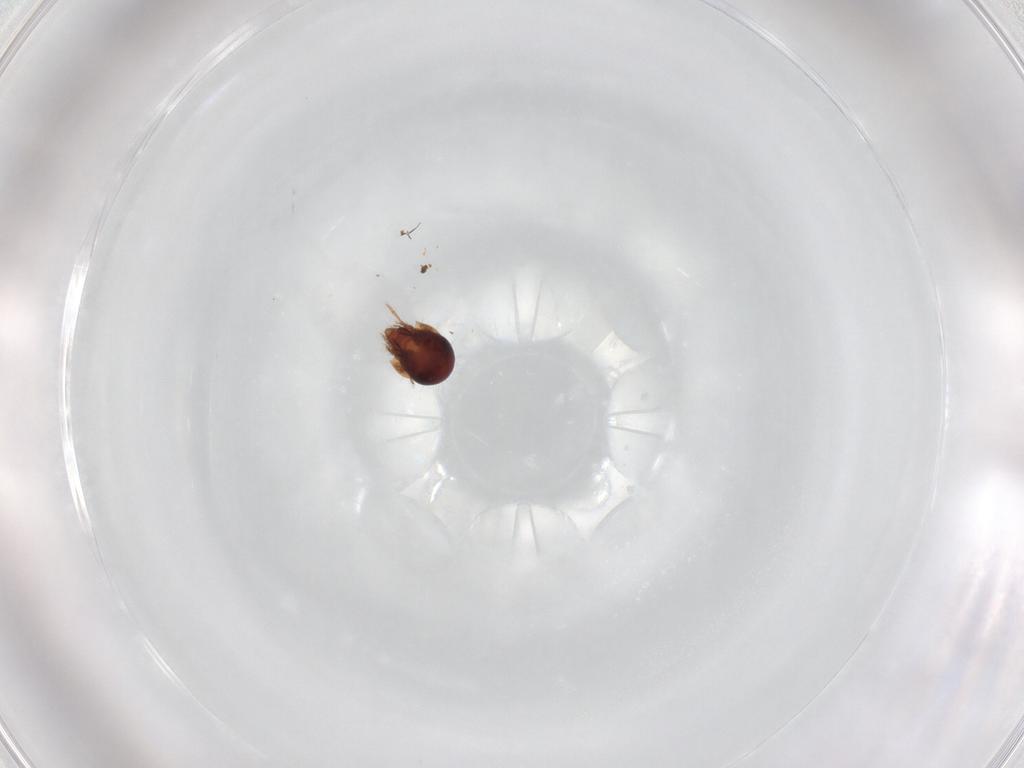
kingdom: Animalia
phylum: Arthropoda
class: Arachnida
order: Sarcoptiformes
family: Humerobatidae
